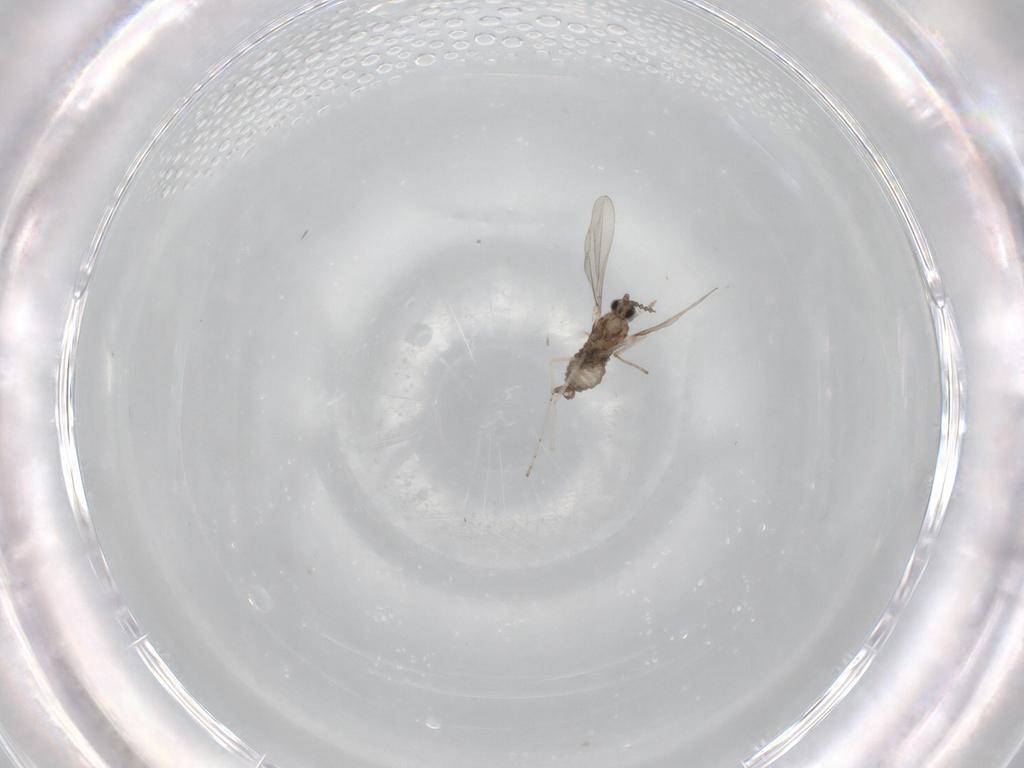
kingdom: Animalia
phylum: Arthropoda
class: Insecta
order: Diptera
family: Cecidomyiidae
